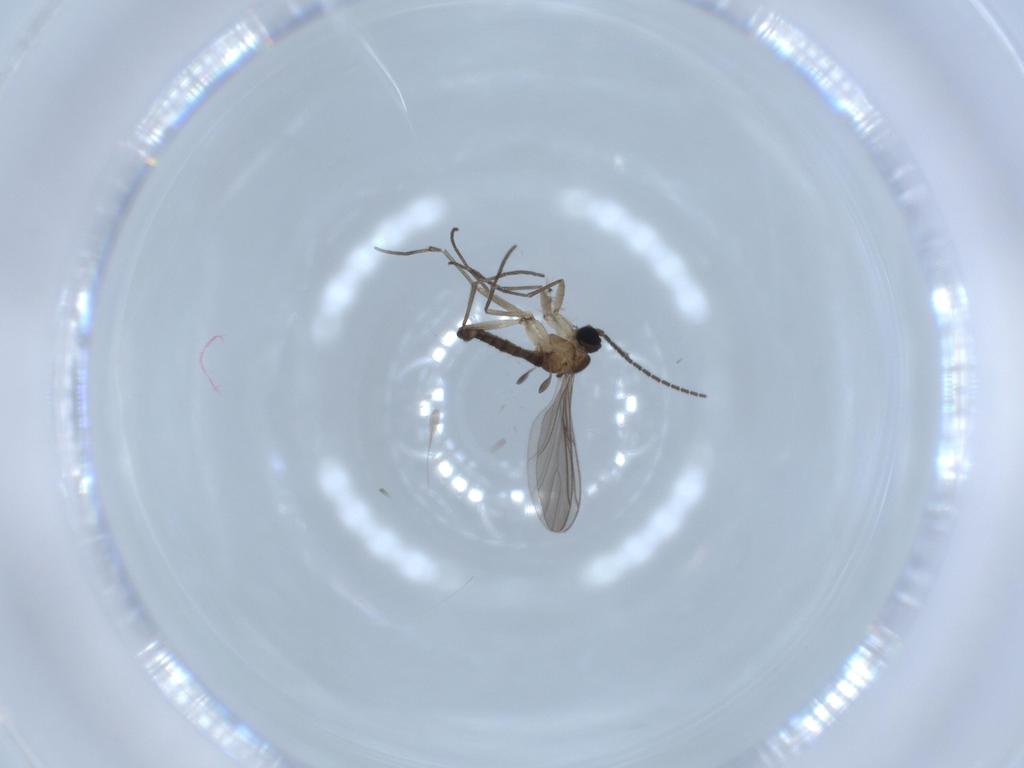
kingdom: Animalia
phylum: Arthropoda
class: Insecta
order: Diptera
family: Sciaridae
